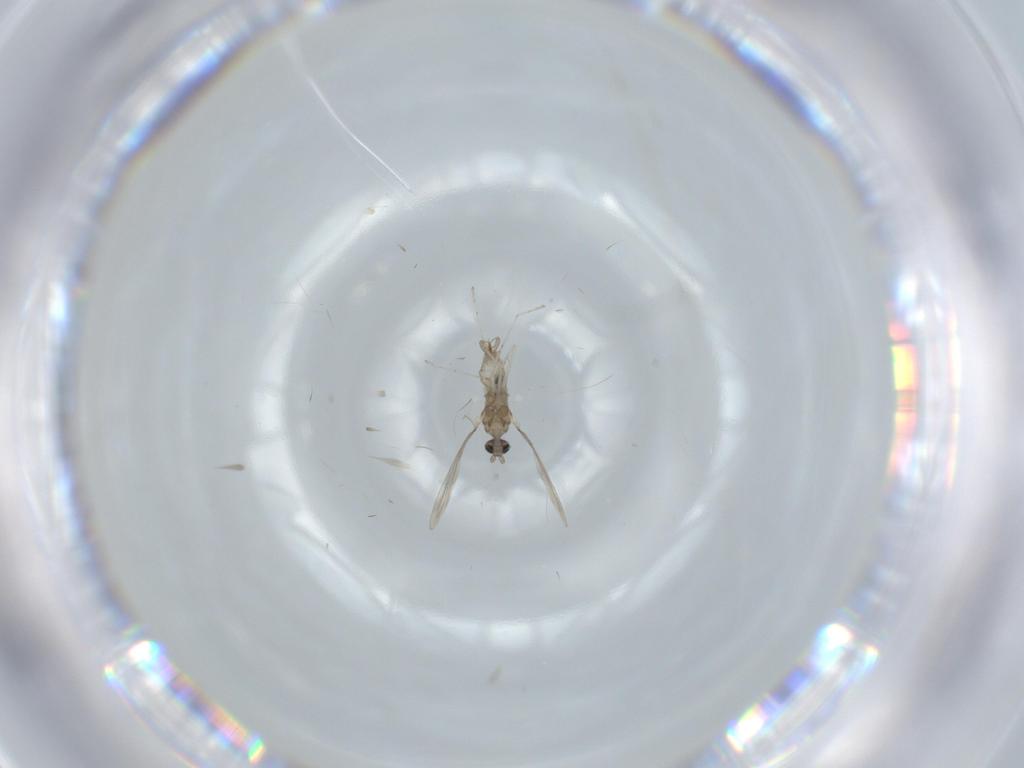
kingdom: Animalia
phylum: Arthropoda
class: Insecta
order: Diptera
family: Cecidomyiidae
